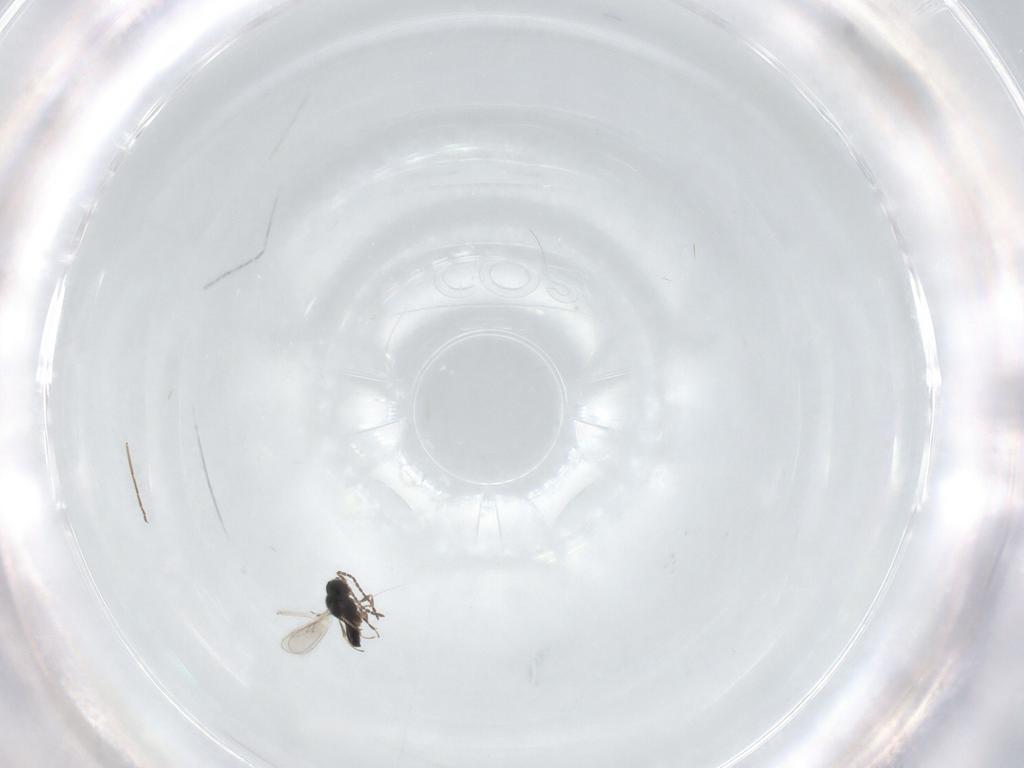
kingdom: Animalia
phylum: Arthropoda
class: Insecta
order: Hymenoptera
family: Scelionidae
